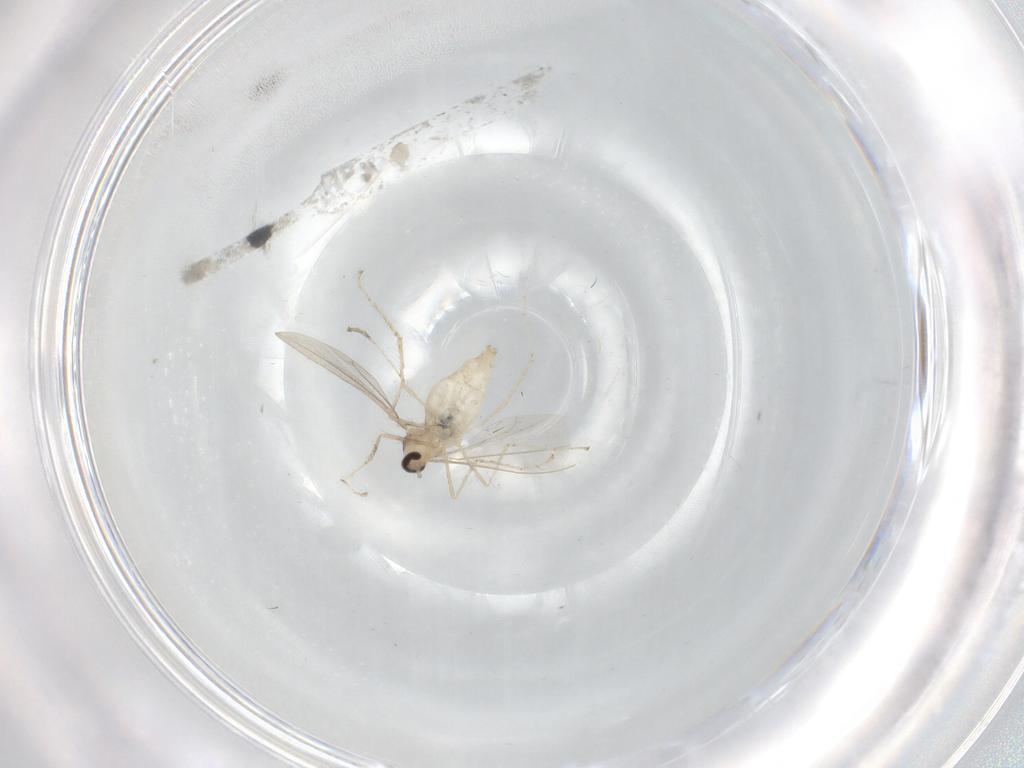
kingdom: Animalia
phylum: Arthropoda
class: Insecta
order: Diptera
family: Cecidomyiidae
